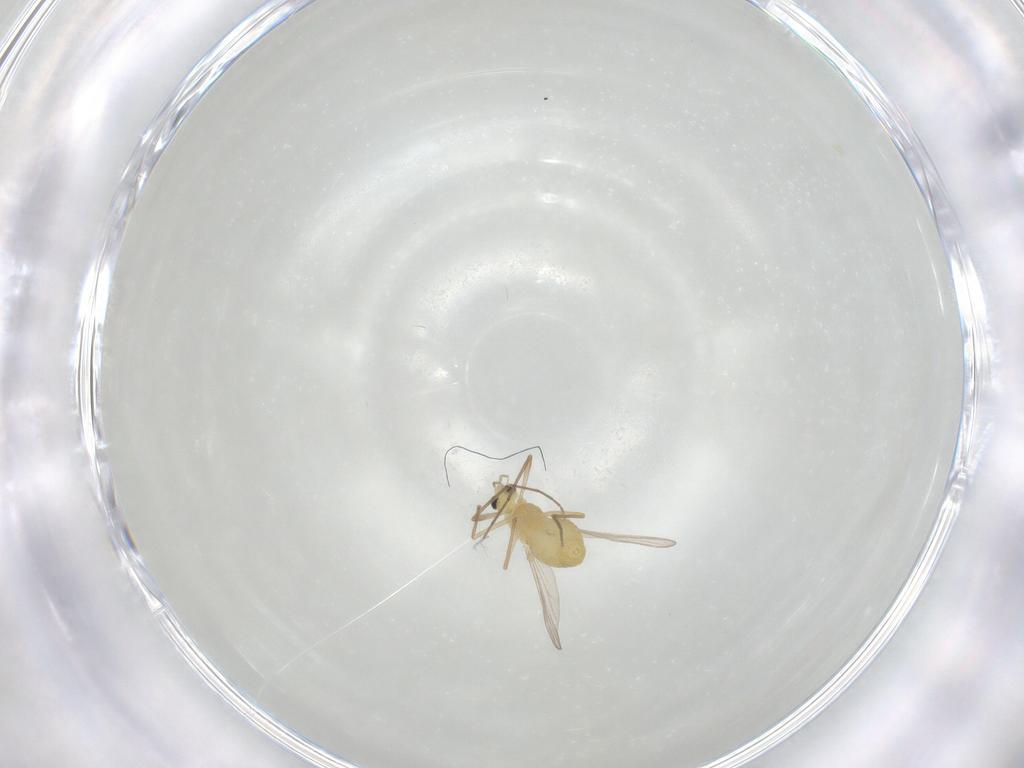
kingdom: Animalia
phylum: Arthropoda
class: Insecta
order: Diptera
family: Chironomidae
